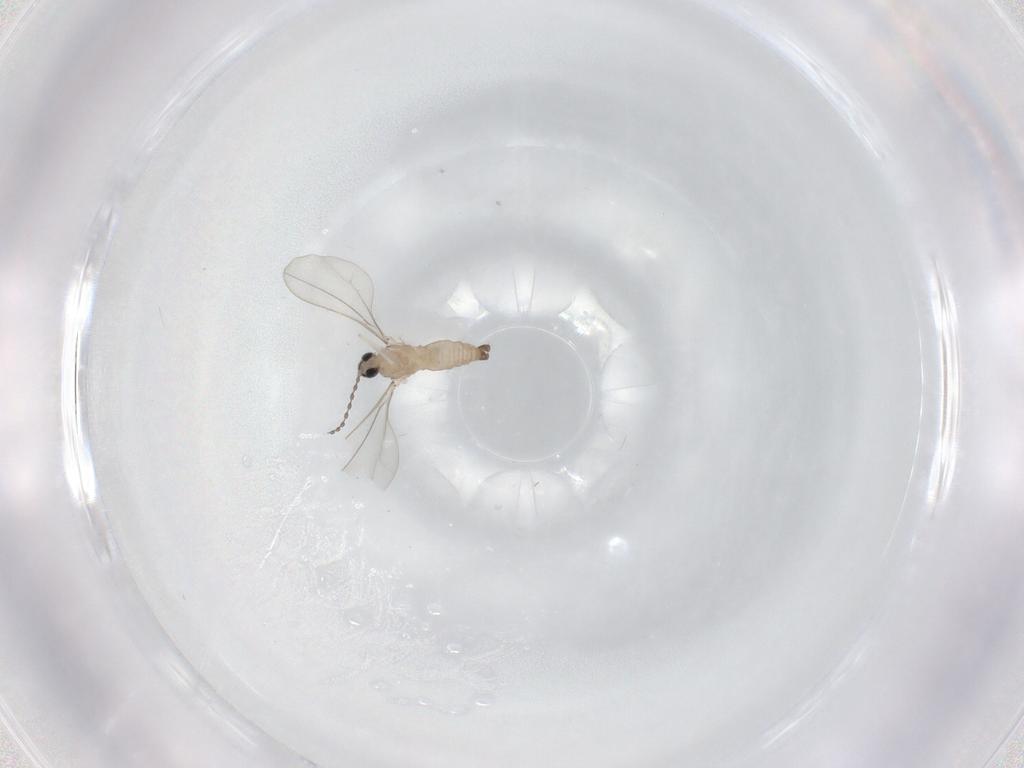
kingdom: Animalia
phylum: Arthropoda
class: Insecta
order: Diptera
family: Cecidomyiidae
